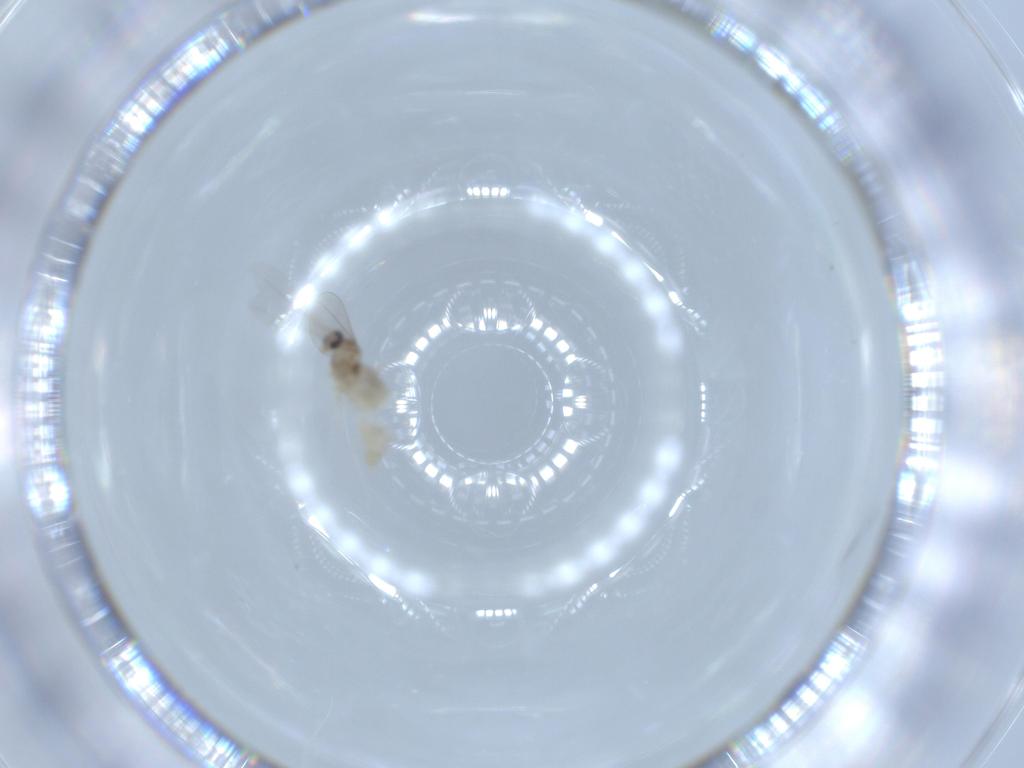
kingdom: Animalia
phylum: Arthropoda
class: Insecta
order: Diptera
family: Cecidomyiidae
